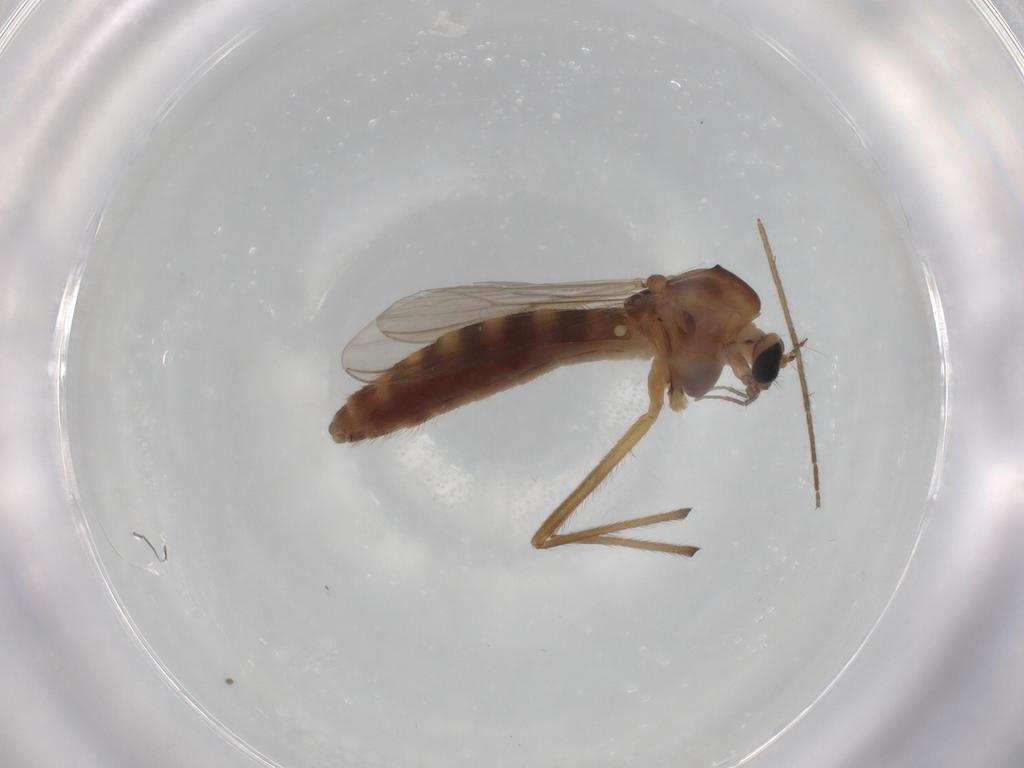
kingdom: Animalia
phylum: Arthropoda
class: Insecta
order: Diptera
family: Chironomidae
